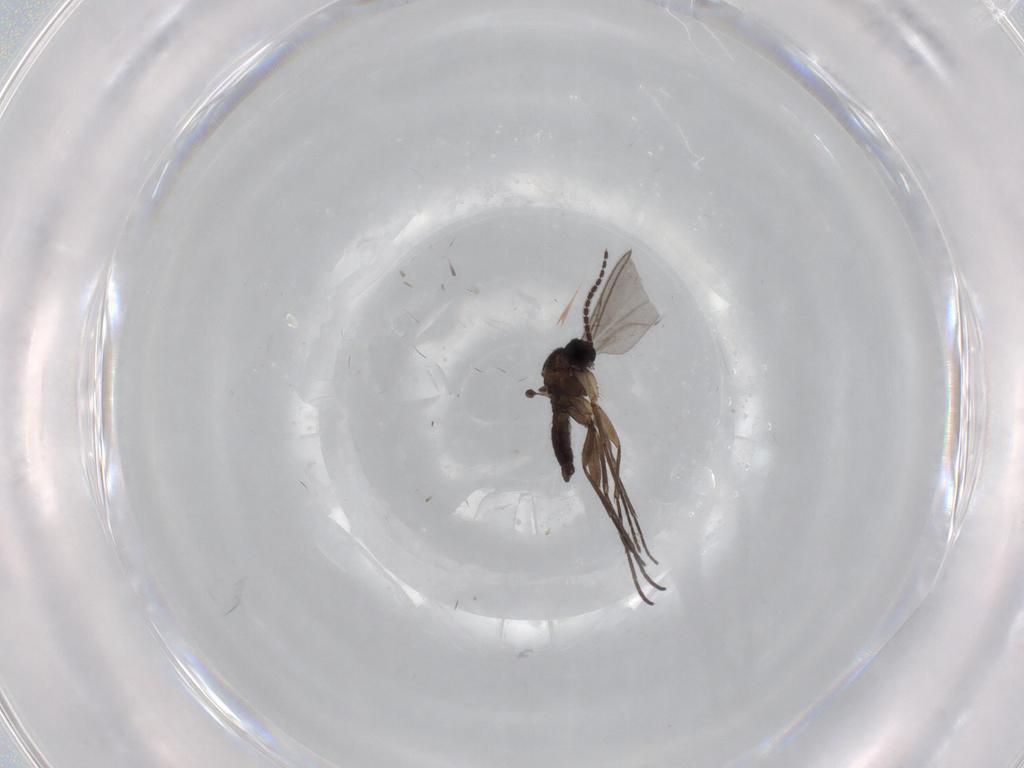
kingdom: Animalia
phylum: Arthropoda
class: Insecta
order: Diptera
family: Sciaridae
